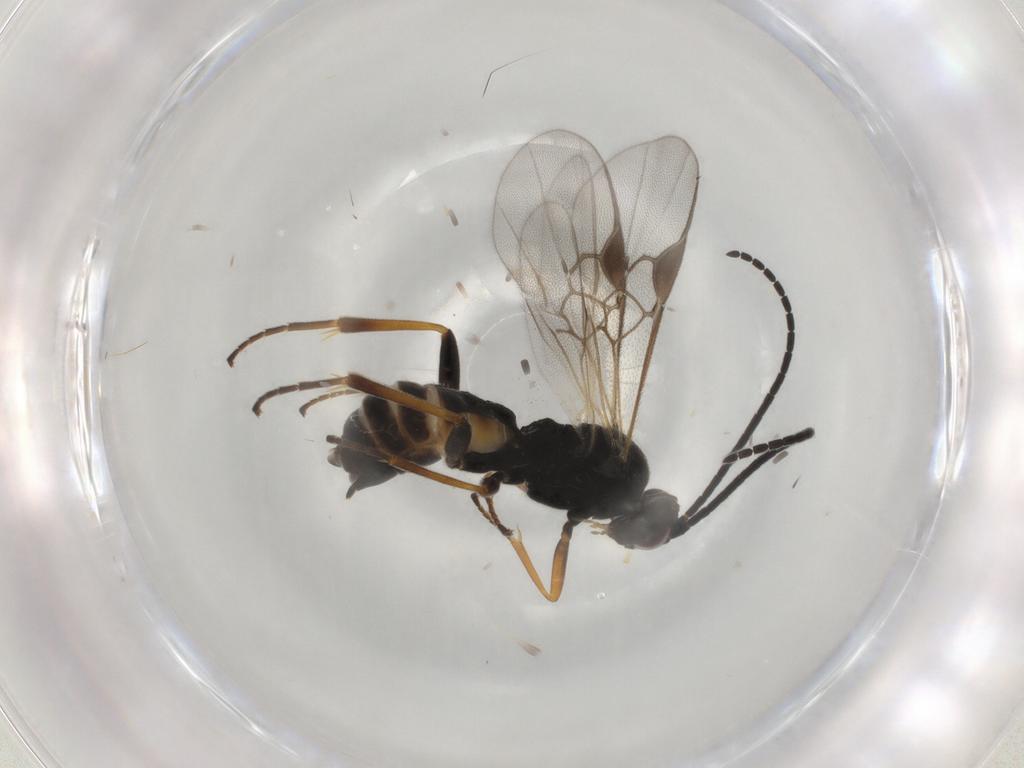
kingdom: Animalia
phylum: Arthropoda
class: Insecta
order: Hymenoptera
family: Braconidae
